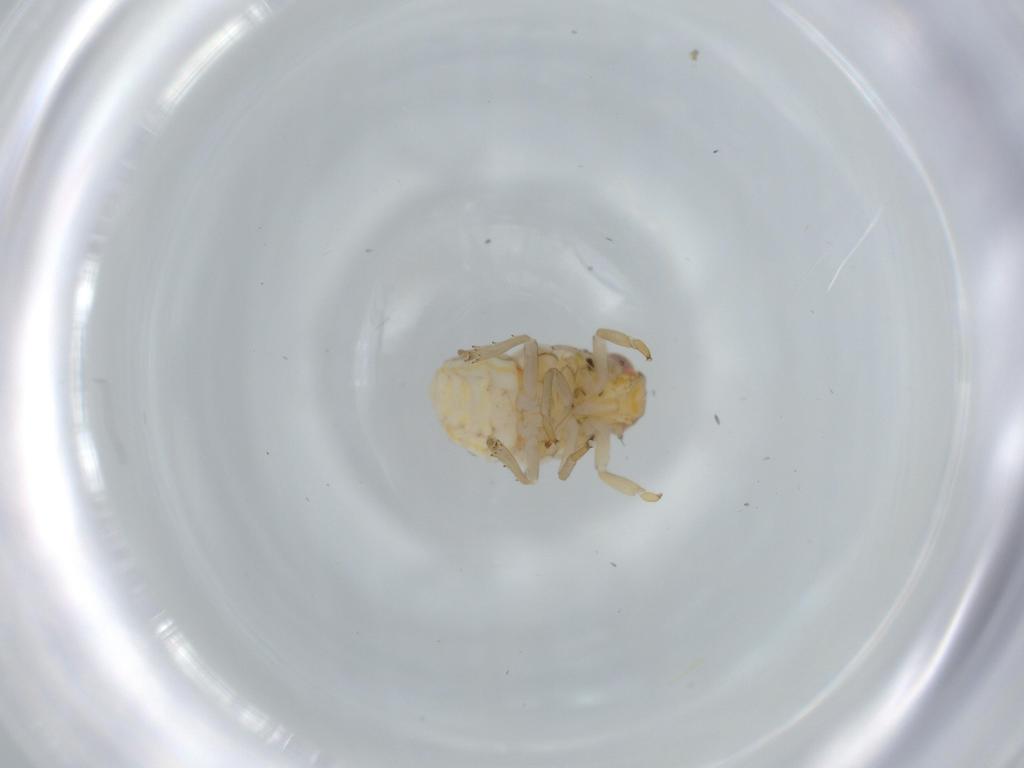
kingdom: Animalia
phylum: Arthropoda
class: Insecta
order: Hemiptera
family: Issidae
